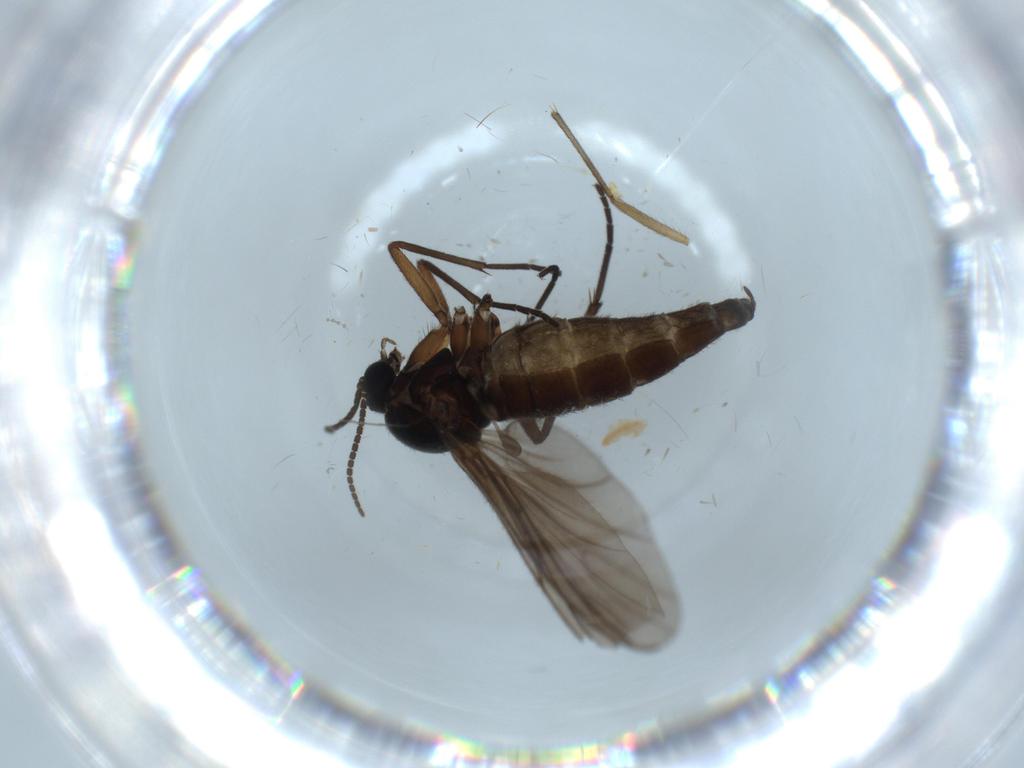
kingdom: Animalia
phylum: Arthropoda
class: Insecta
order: Diptera
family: Sciaridae
